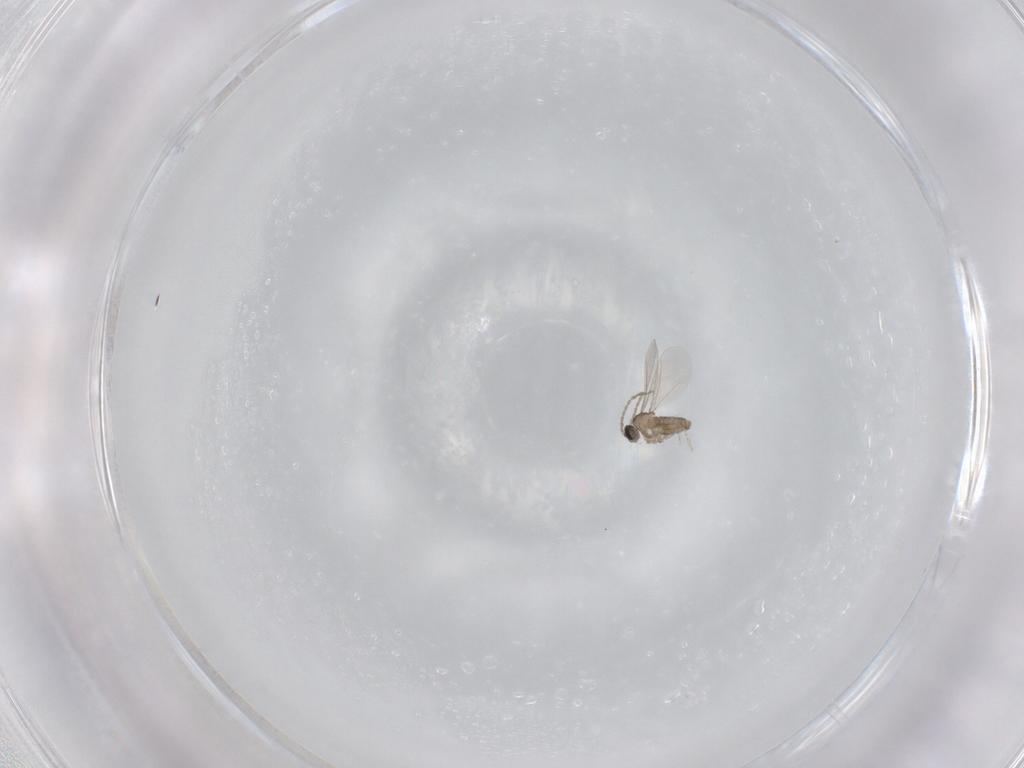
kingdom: Animalia
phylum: Arthropoda
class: Insecta
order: Diptera
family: Cecidomyiidae
